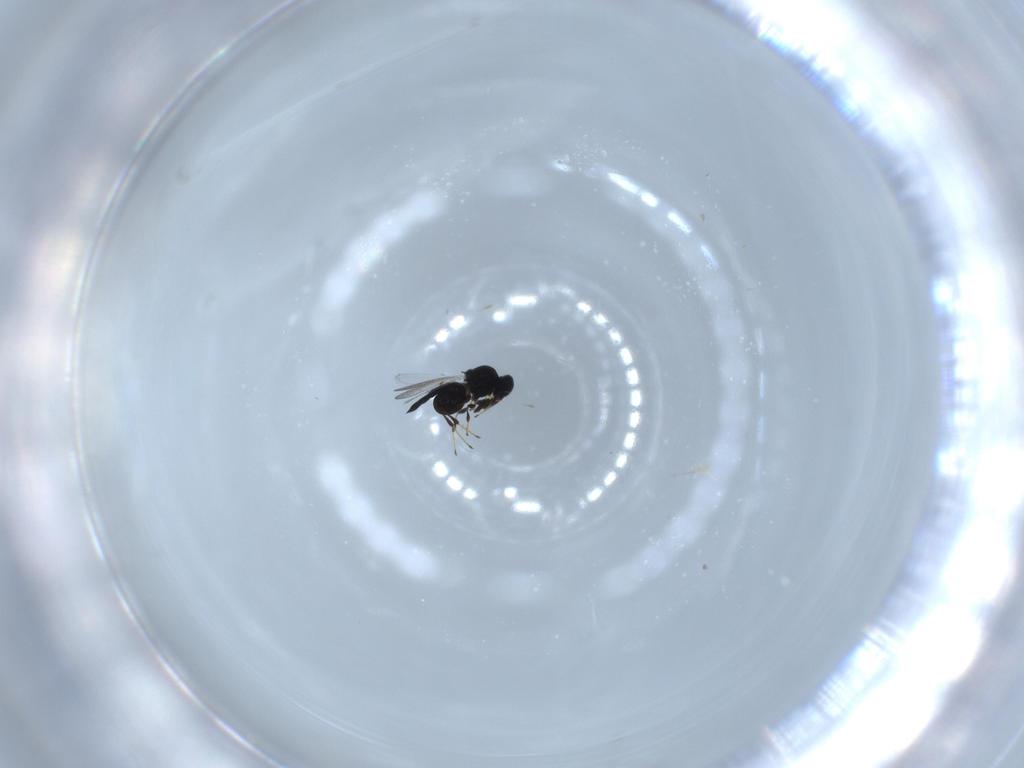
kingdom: Animalia
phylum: Arthropoda
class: Insecta
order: Hymenoptera
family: Platygastridae
